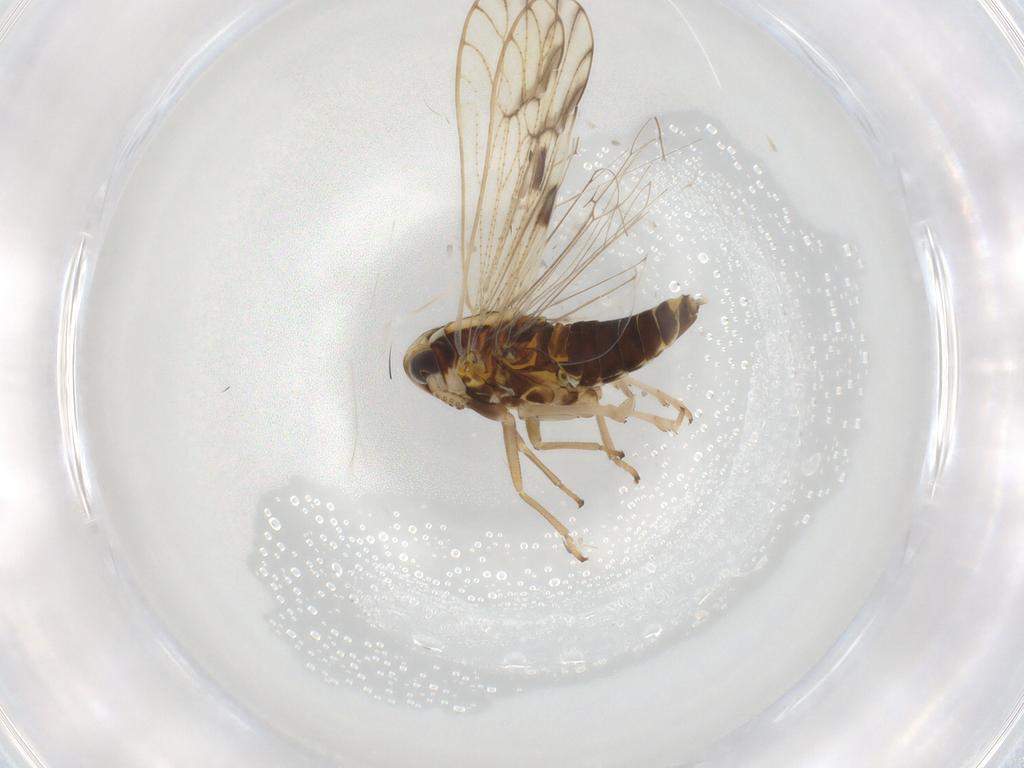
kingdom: Animalia
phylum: Arthropoda
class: Insecta
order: Hemiptera
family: Delphacidae
